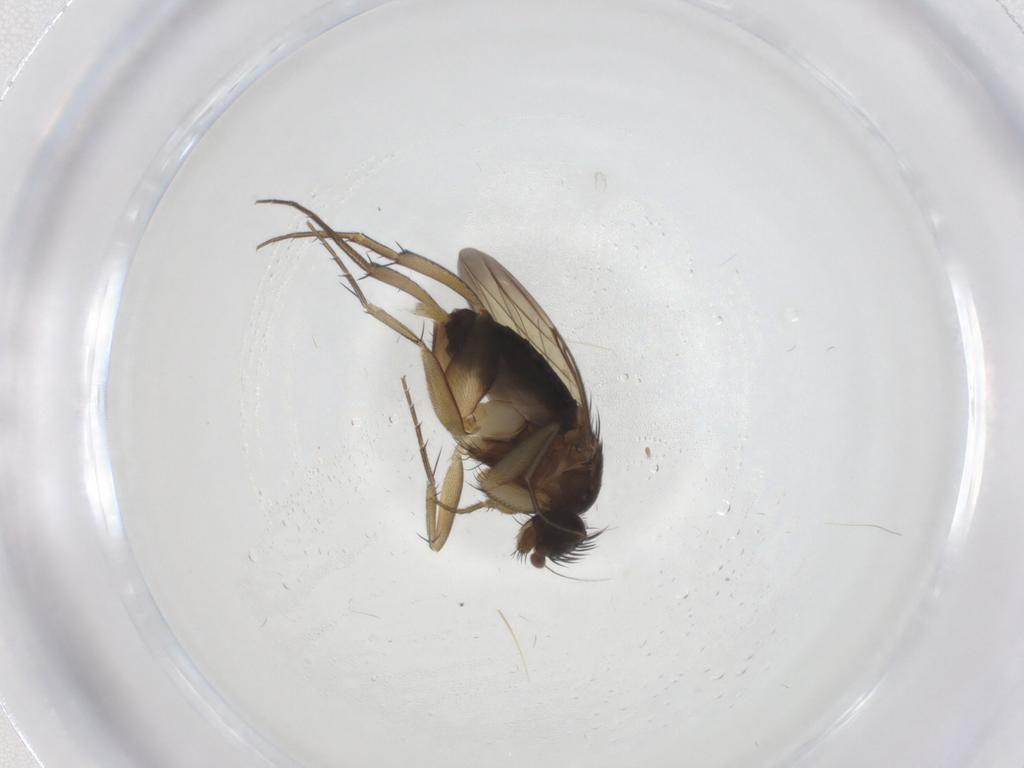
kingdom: Animalia
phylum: Arthropoda
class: Insecta
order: Diptera
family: Phoridae
